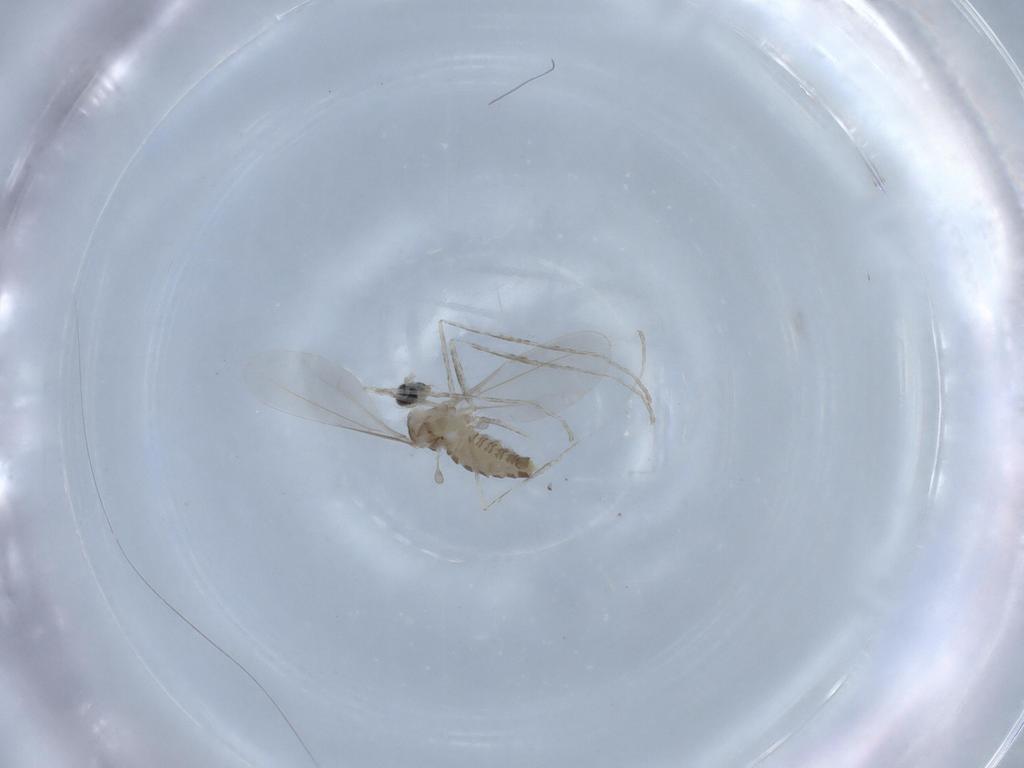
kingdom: Animalia
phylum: Arthropoda
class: Insecta
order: Diptera
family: Chironomidae
